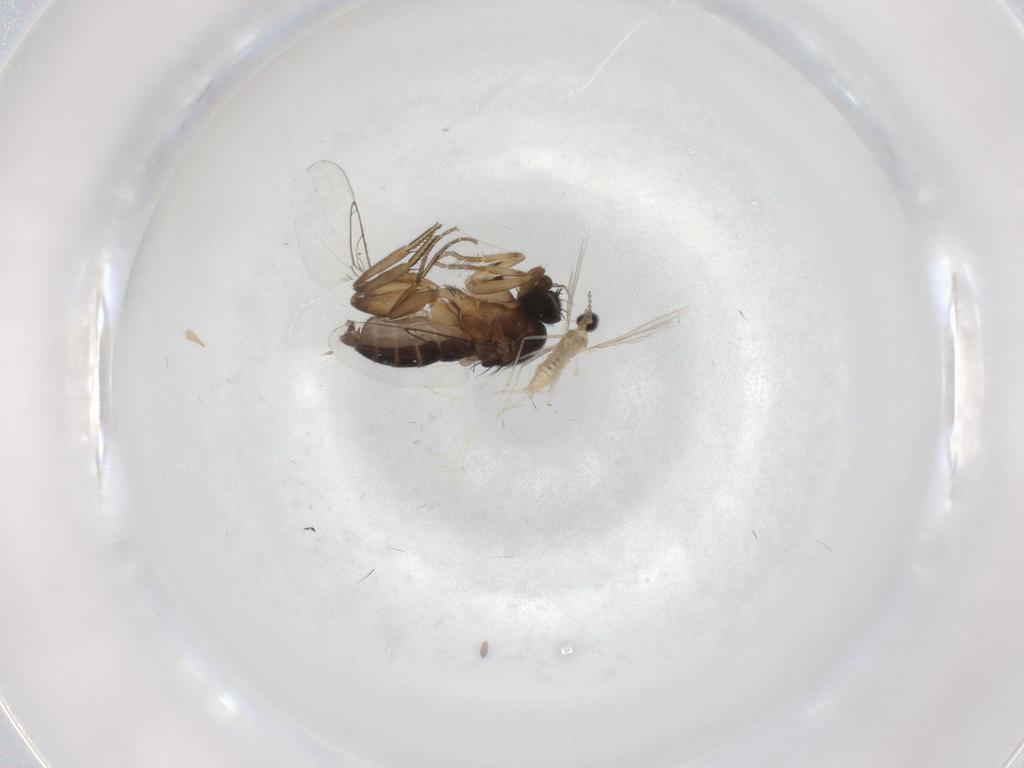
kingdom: Animalia
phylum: Arthropoda
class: Insecta
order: Diptera
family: Phoridae
